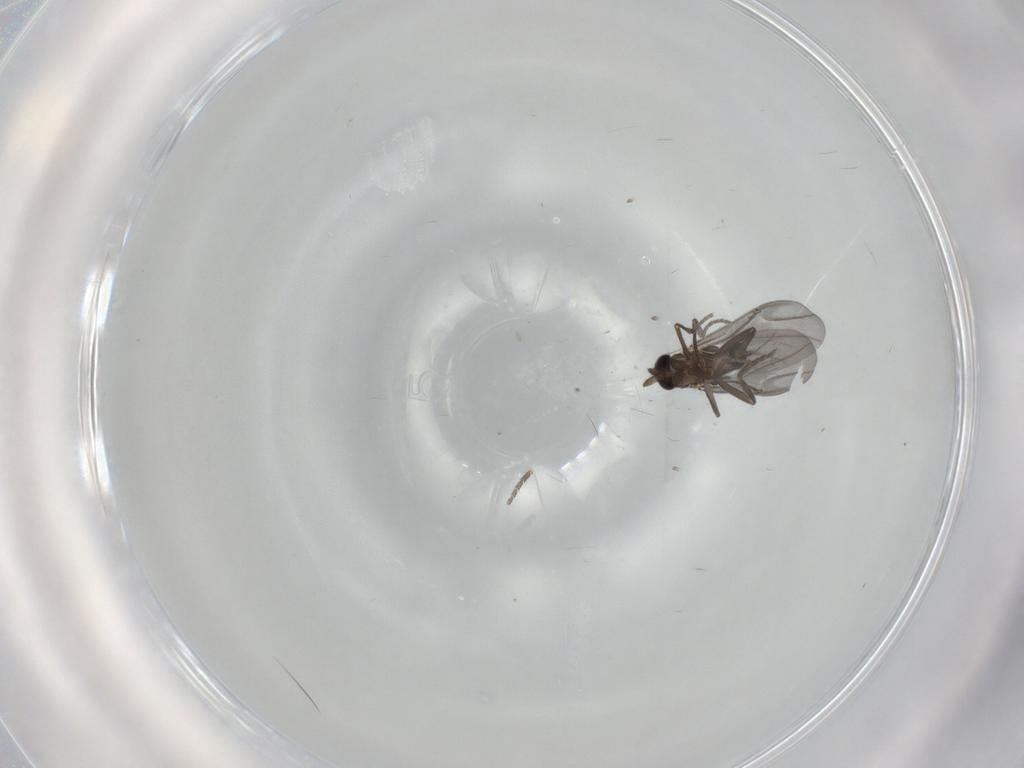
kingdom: Animalia
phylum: Arthropoda
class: Insecta
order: Diptera
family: Phoridae
